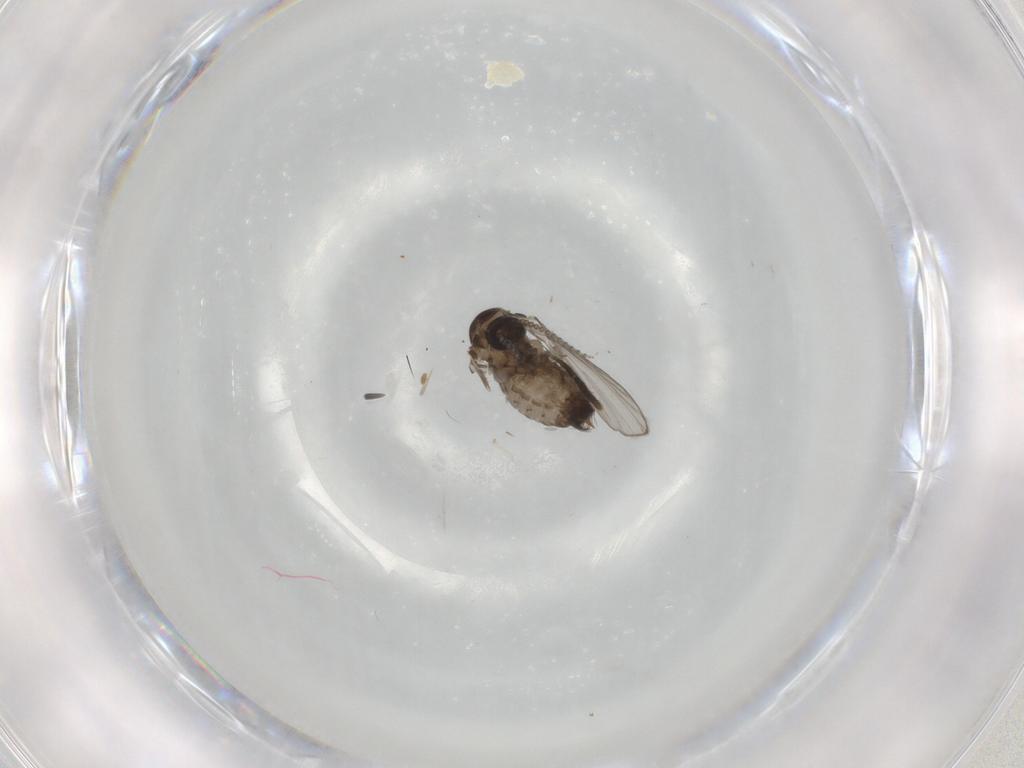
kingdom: Animalia
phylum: Arthropoda
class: Insecta
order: Diptera
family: Psychodidae
